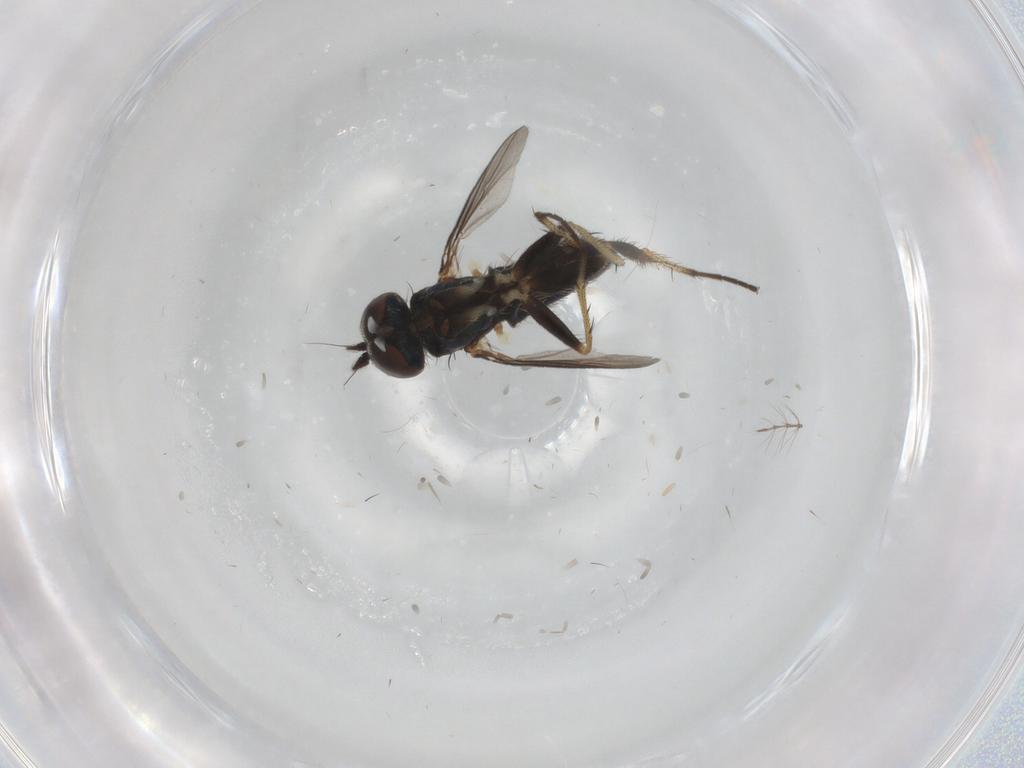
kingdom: Animalia
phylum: Arthropoda
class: Insecta
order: Diptera
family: Dolichopodidae
